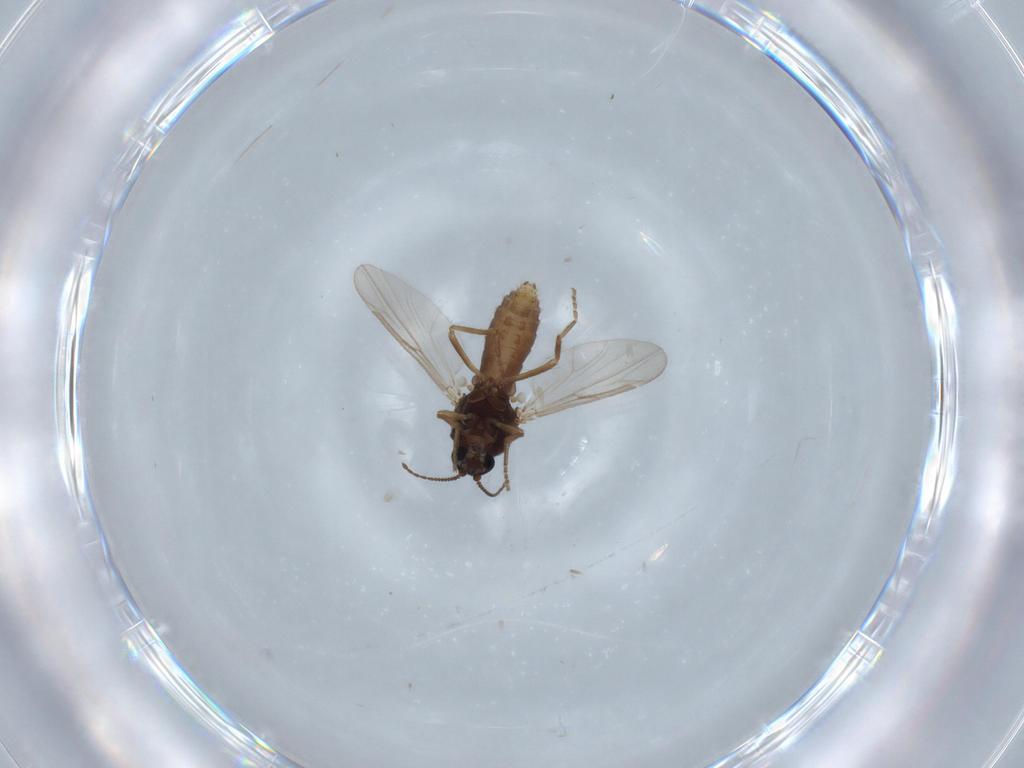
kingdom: Animalia
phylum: Arthropoda
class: Insecta
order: Diptera
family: Ceratopogonidae
